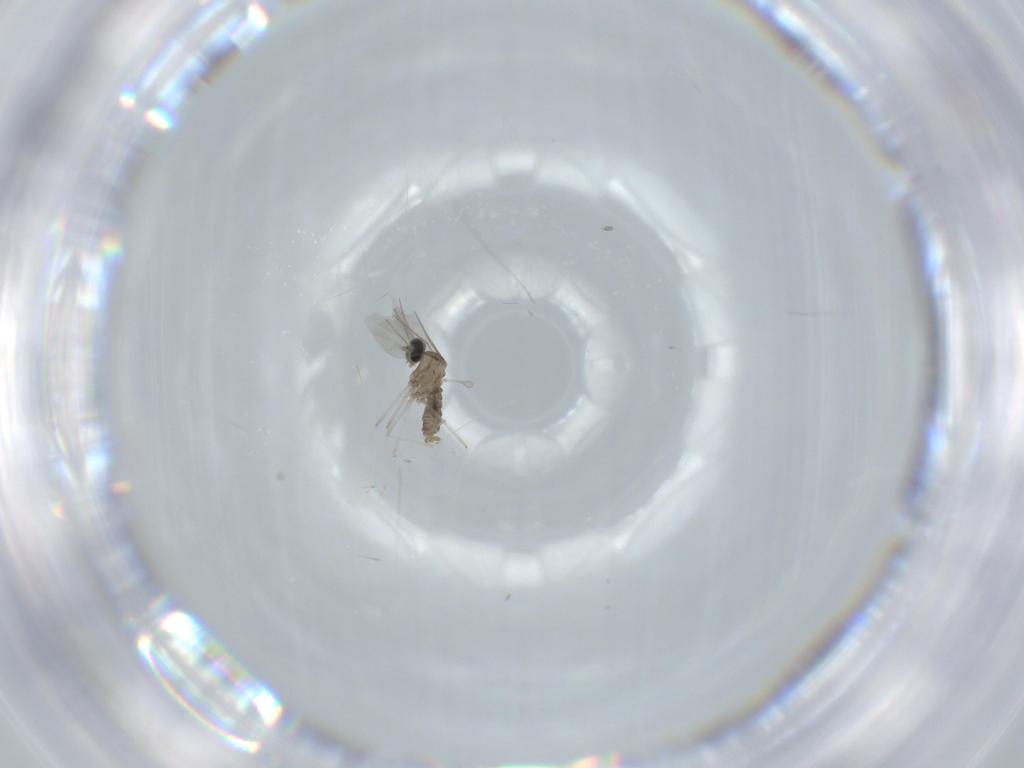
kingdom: Animalia
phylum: Arthropoda
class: Insecta
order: Diptera
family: Cecidomyiidae
